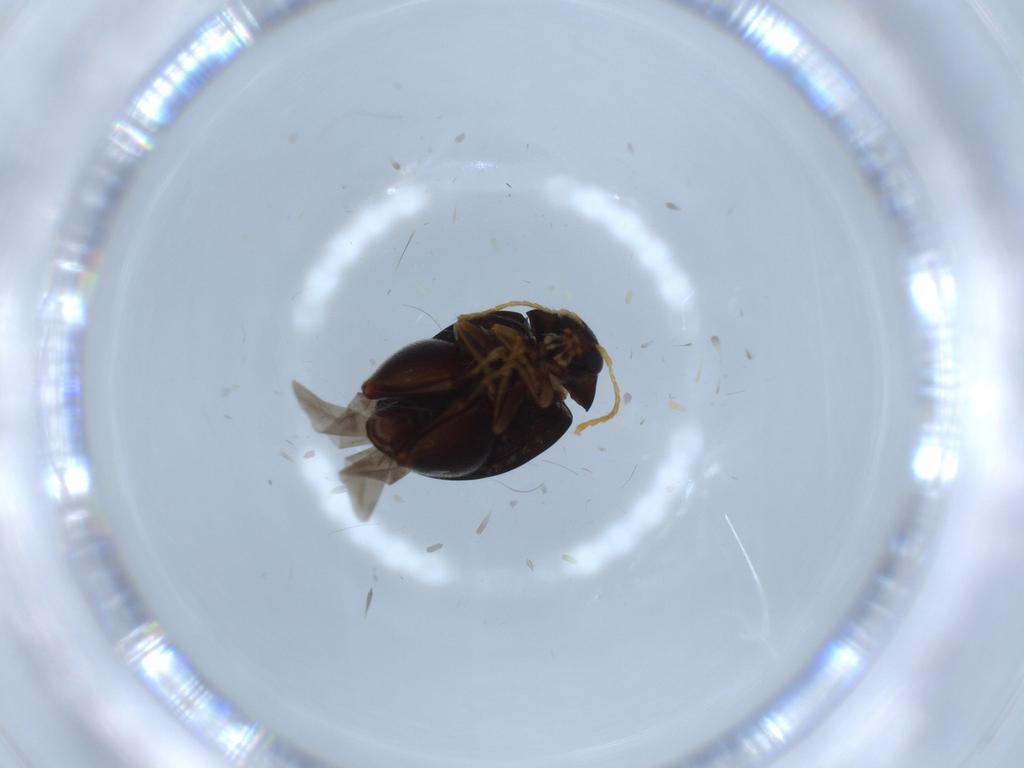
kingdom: Animalia
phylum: Arthropoda
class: Insecta
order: Coleoptera
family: Chrysomelidae
